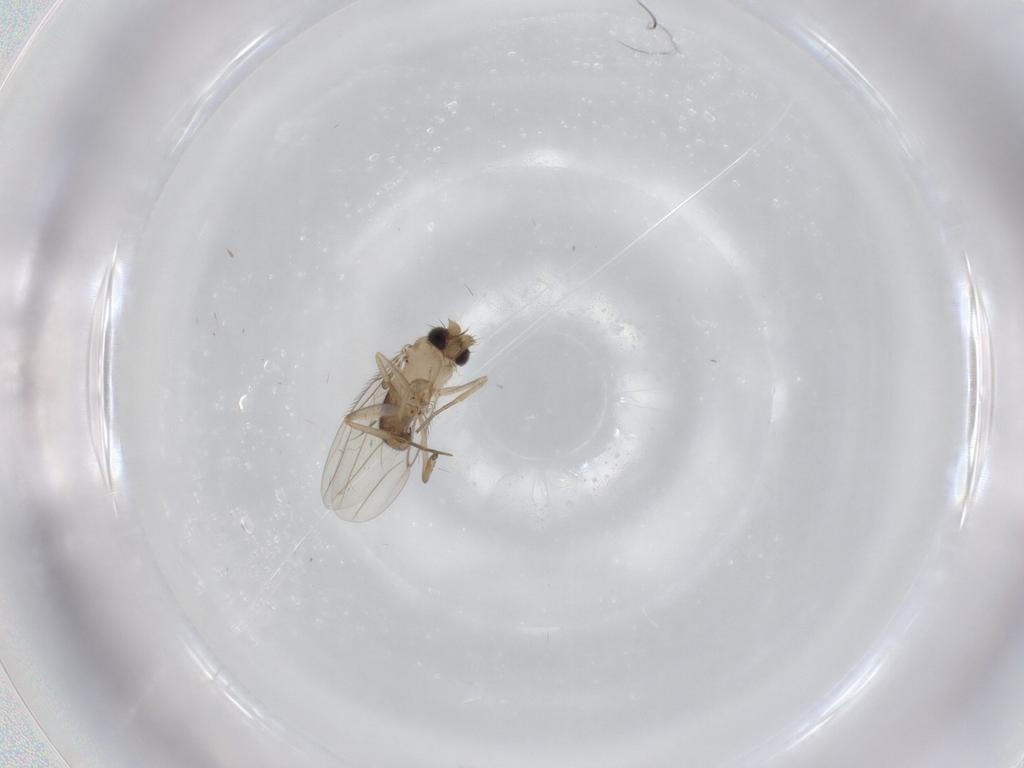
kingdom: Animalia
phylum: Arthropoda
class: Insecta
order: Diptera
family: Phoridae
